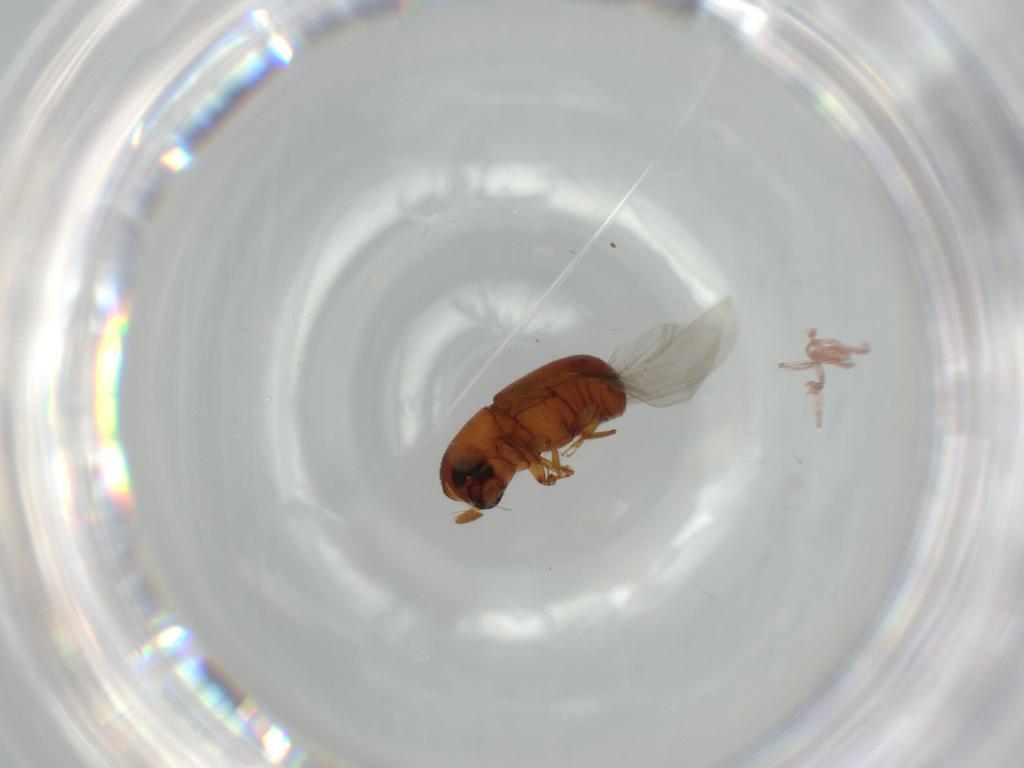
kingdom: Animalia
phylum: Arthropoda
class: Insecta
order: Coleoptera
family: Curculionidae
